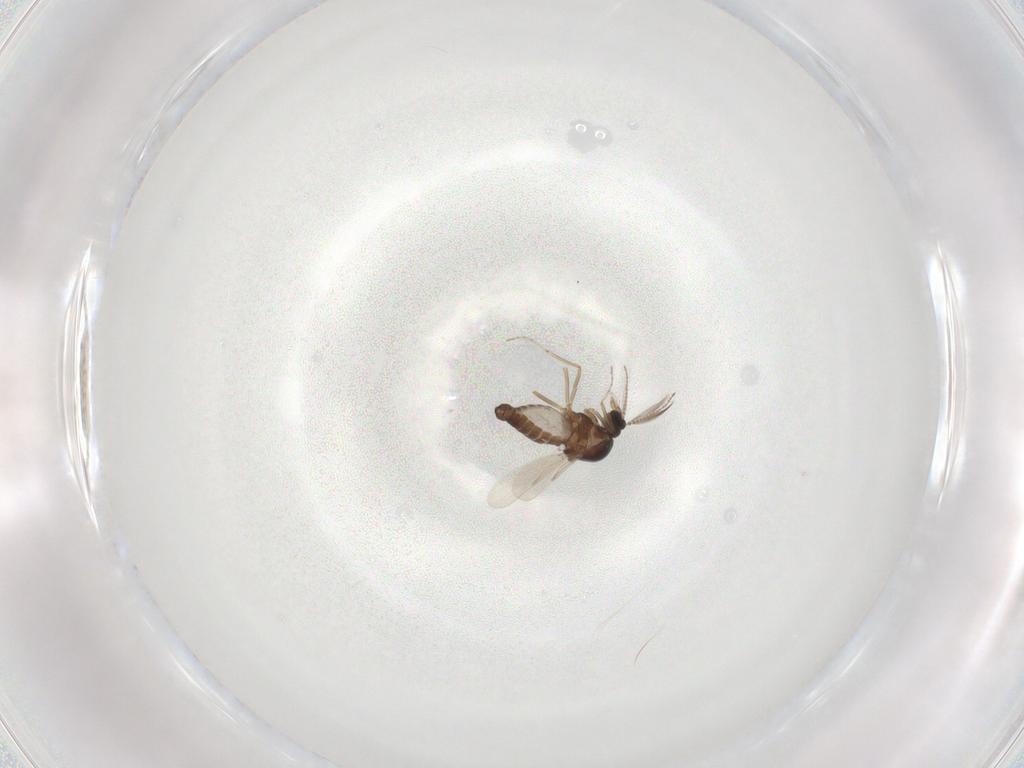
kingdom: Animalia
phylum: Arthropoda
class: Insecta
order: Diptera
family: Ceratopogonidae
